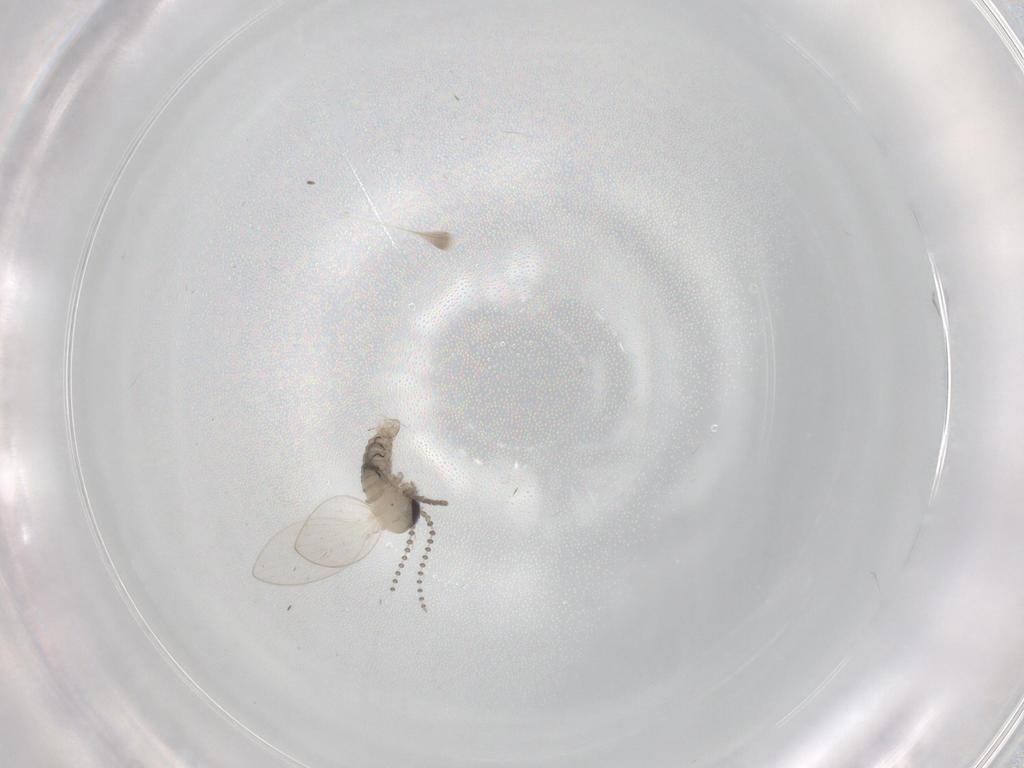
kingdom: Animalia
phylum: Arthropoda
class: Insecta
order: Diptera
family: Psychodidae
